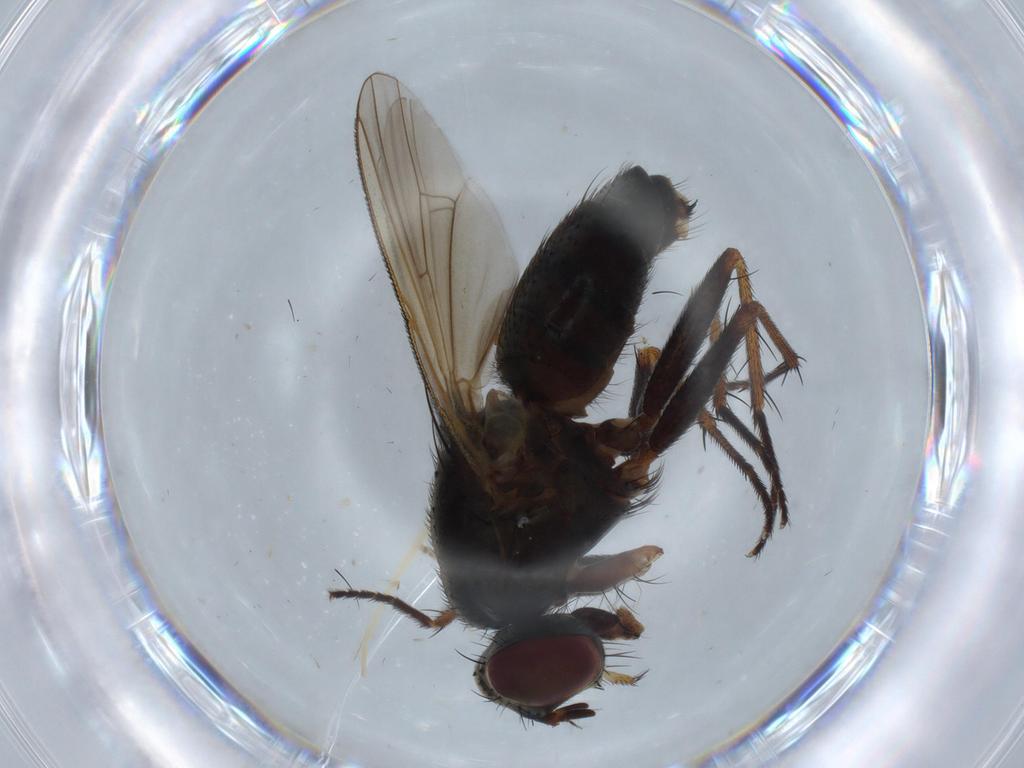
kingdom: Animalia
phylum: Arthropoda
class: Insecta
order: Diptera
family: Muscidae
